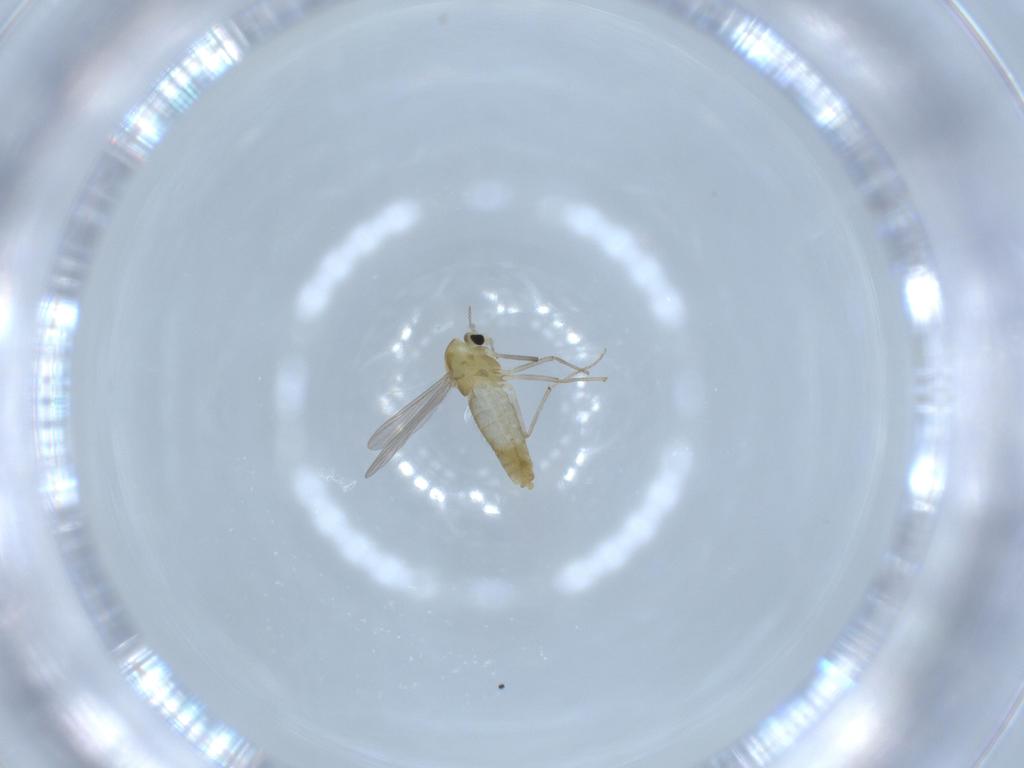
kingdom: Animalia
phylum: Arthropoda
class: Insecta
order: Diptera
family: Chironomidae
